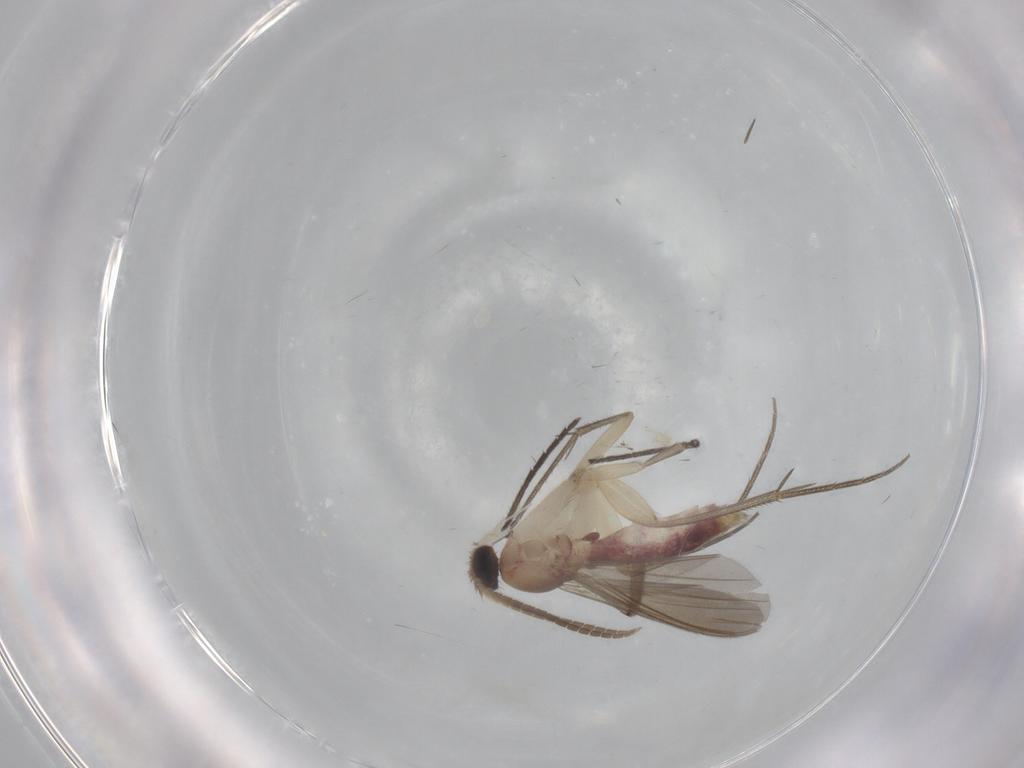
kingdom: Animalia
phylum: Arthropoda
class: Insecta
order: Diptera
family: Mycetophilidae
